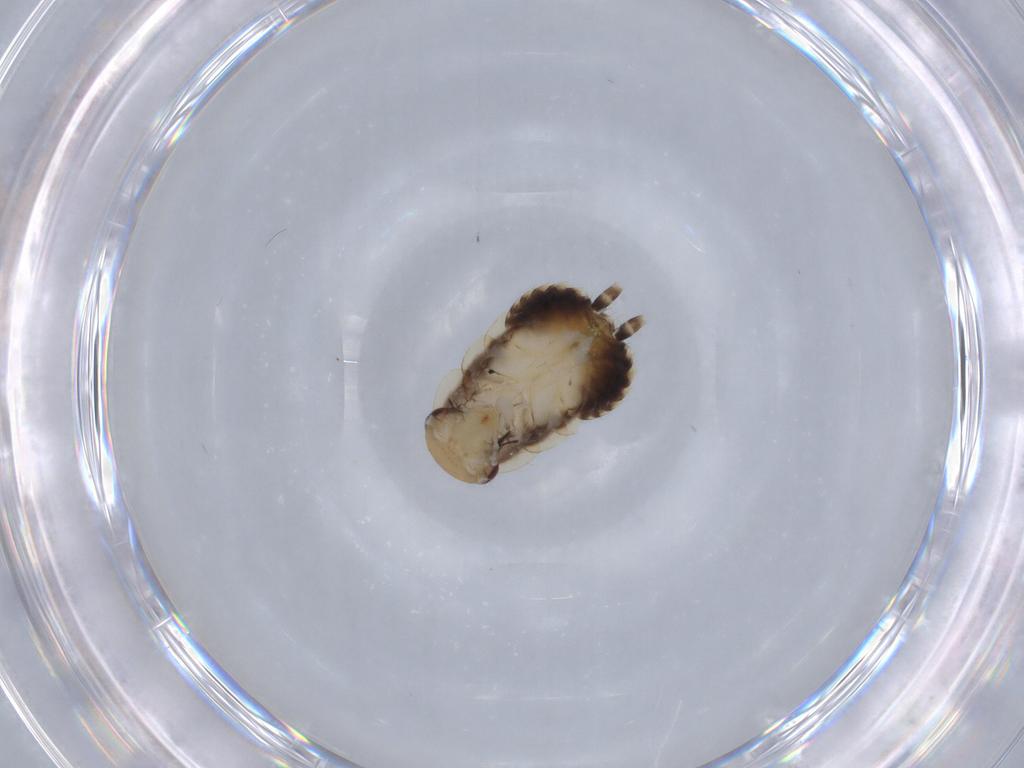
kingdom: Animalia
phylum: Arthropoda
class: Insecta
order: Blattodea
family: Ectobiidae
